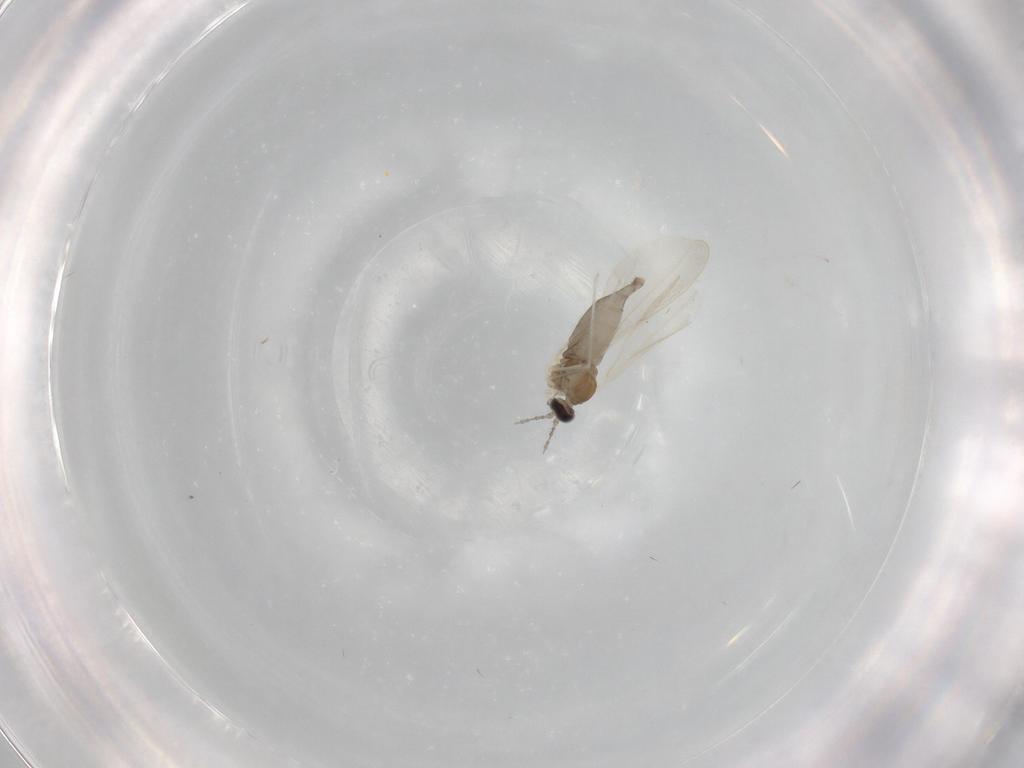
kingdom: Animalia
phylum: Arthropoda
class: Insecta
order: Diptera
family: Cecidomyiidae
